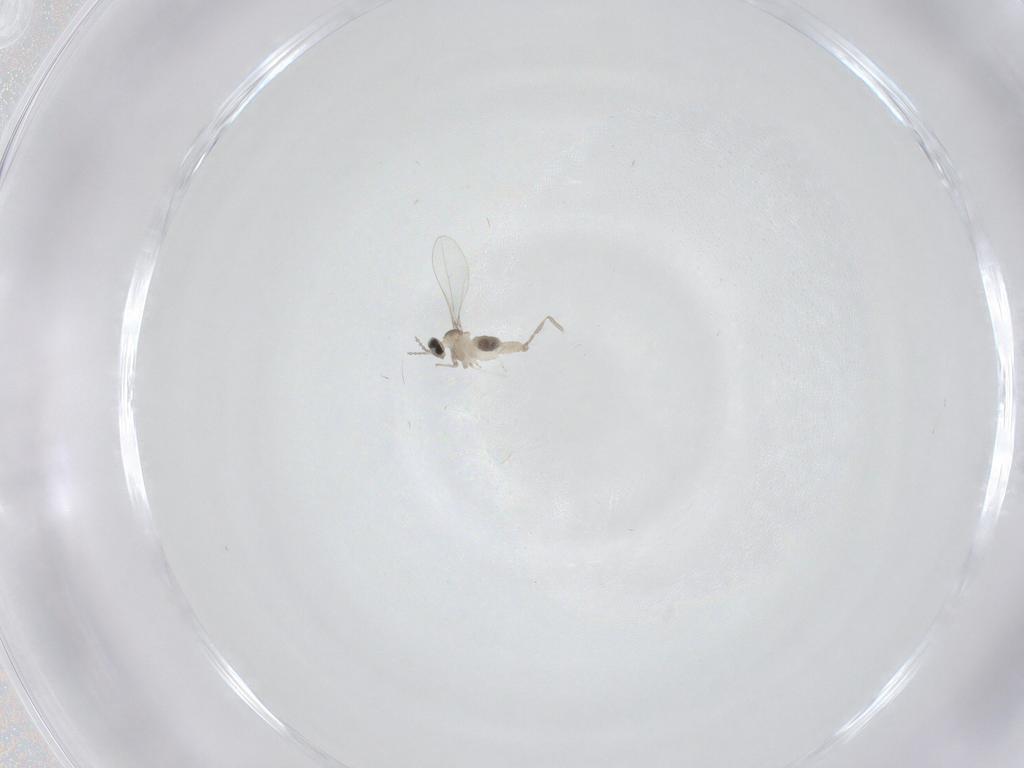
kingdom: Animalia
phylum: Arthropoda
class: Insecta
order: Diptera
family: Psychodidae
